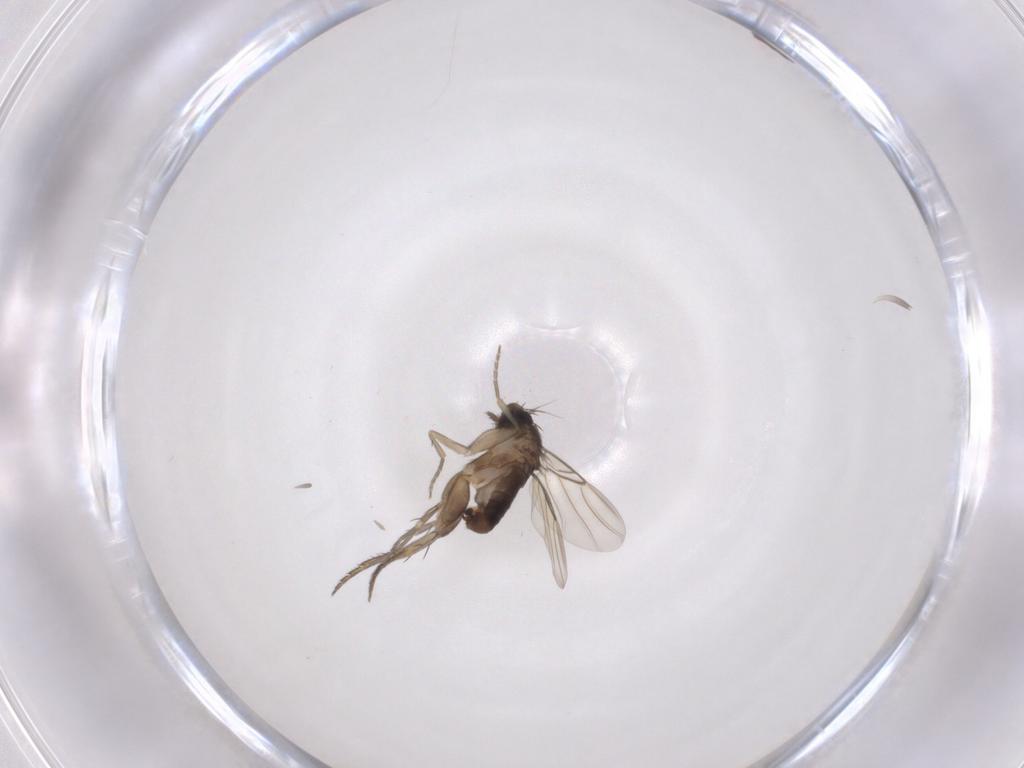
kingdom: Animalia
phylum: Arthropoda
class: Insecta
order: Diptera
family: Phoridae
